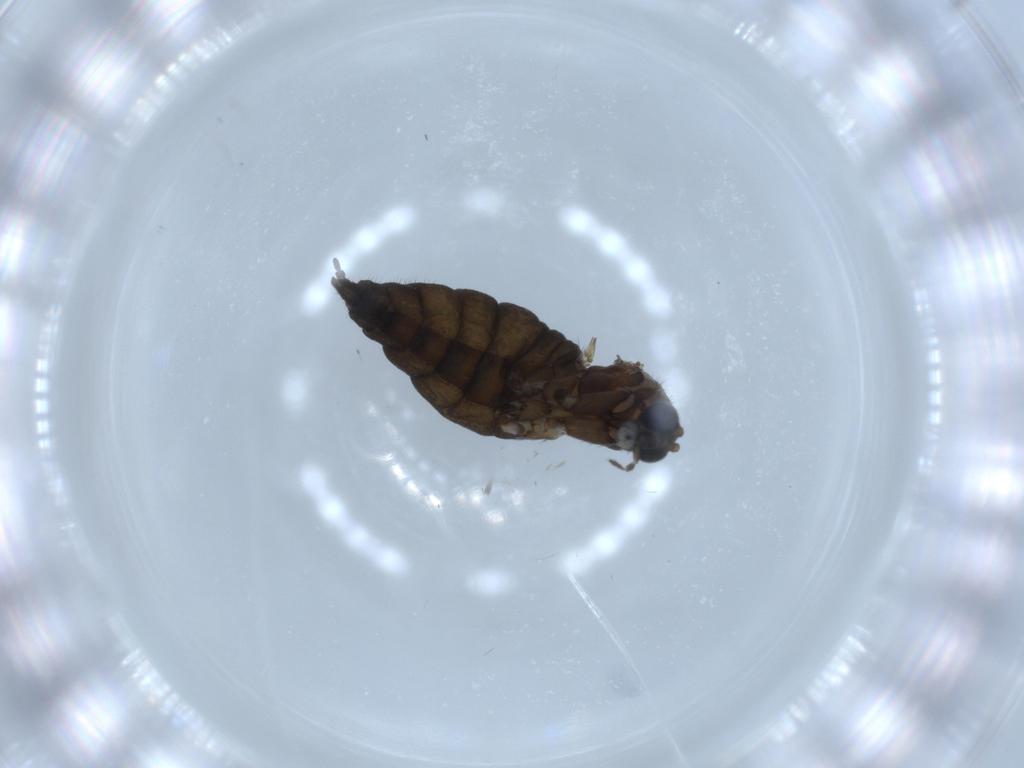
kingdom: Animalia
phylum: Arthropoda
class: Insecta
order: Diptera
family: Sciaridae
